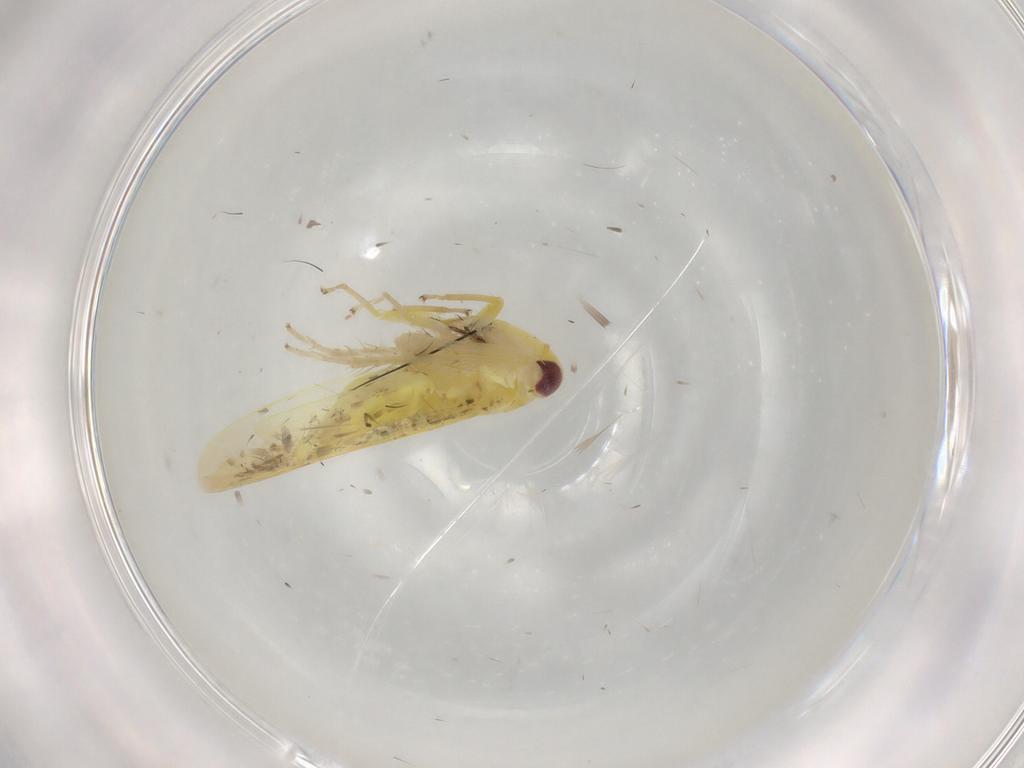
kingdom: Animalia
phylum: Arthropoda
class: Insecta
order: Hemiptera
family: Cicadellidae
